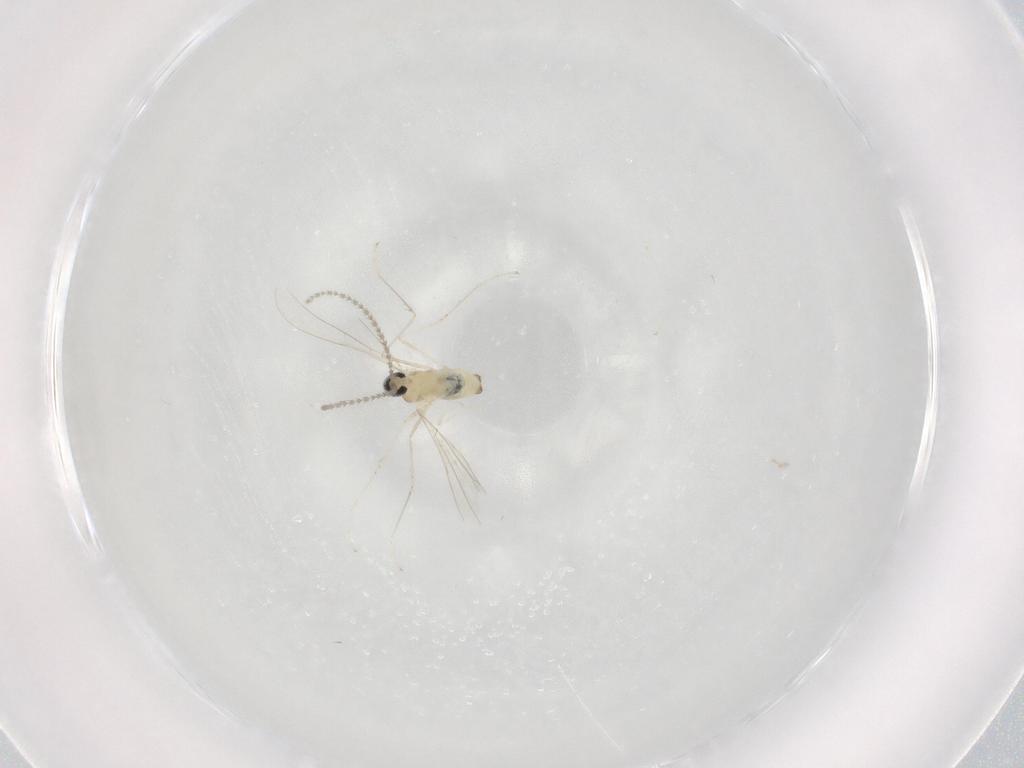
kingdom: Animalia
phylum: Arthropoda
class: Insecta
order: Diptera
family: Cecidomyiidae
